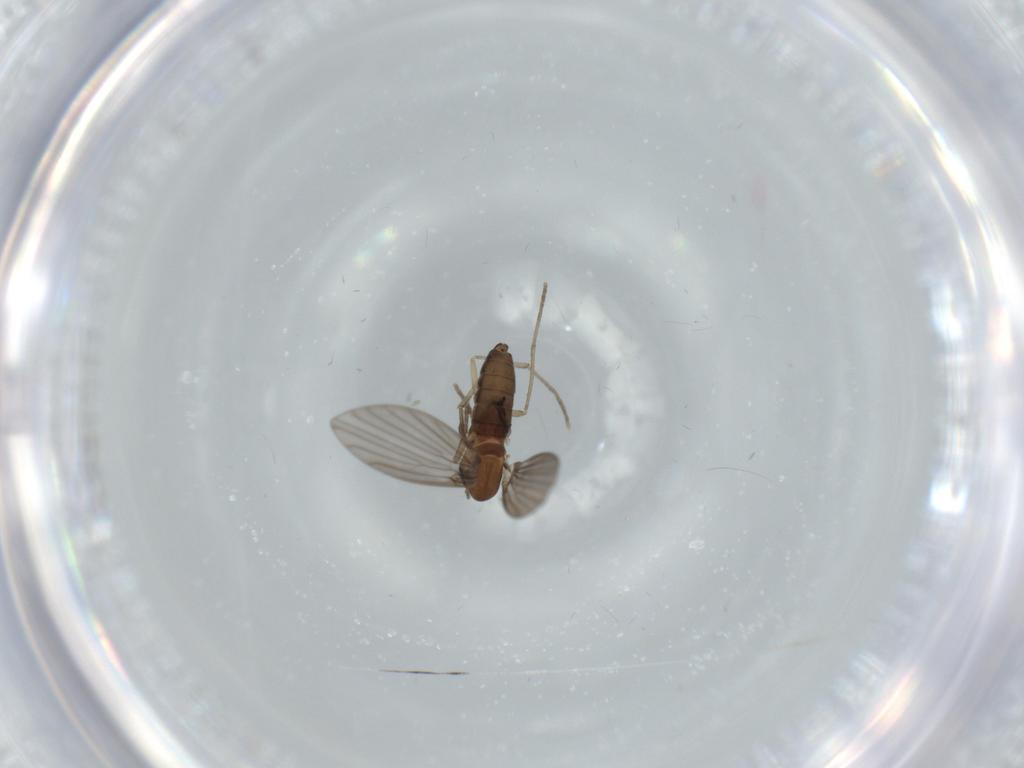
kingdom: Animalia
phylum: Arthropoda
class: Insecta
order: Diptera
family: Psychodidae
